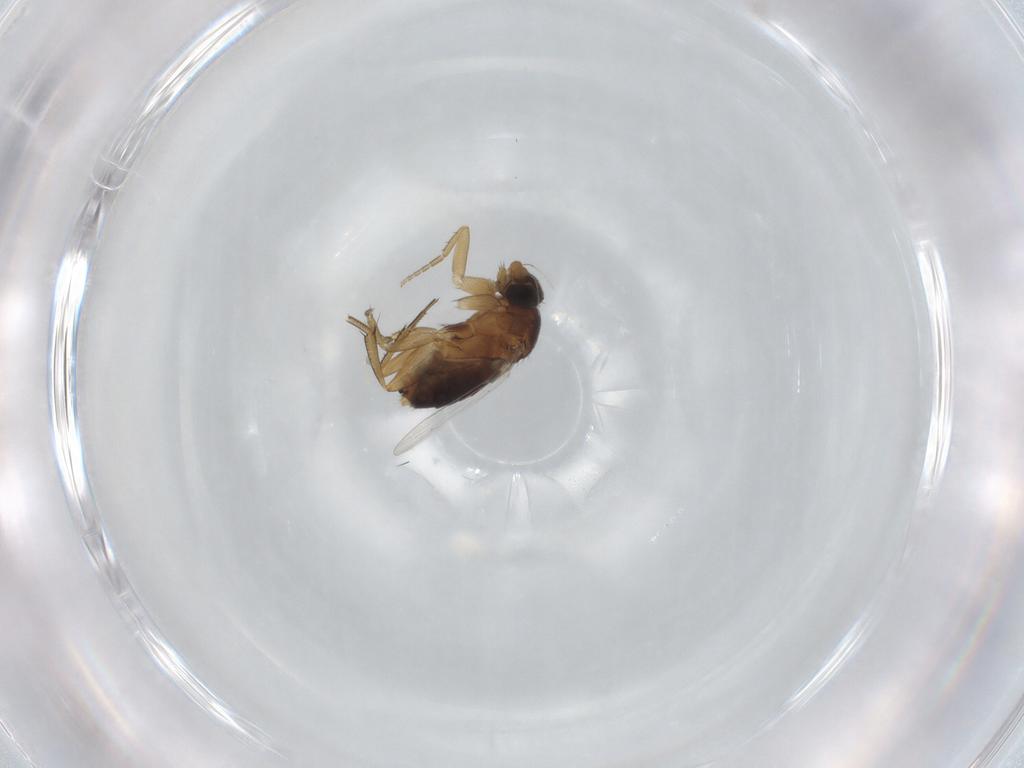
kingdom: Animalia
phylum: Arthropoda
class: Insecta
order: Diptera
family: Phoridae
